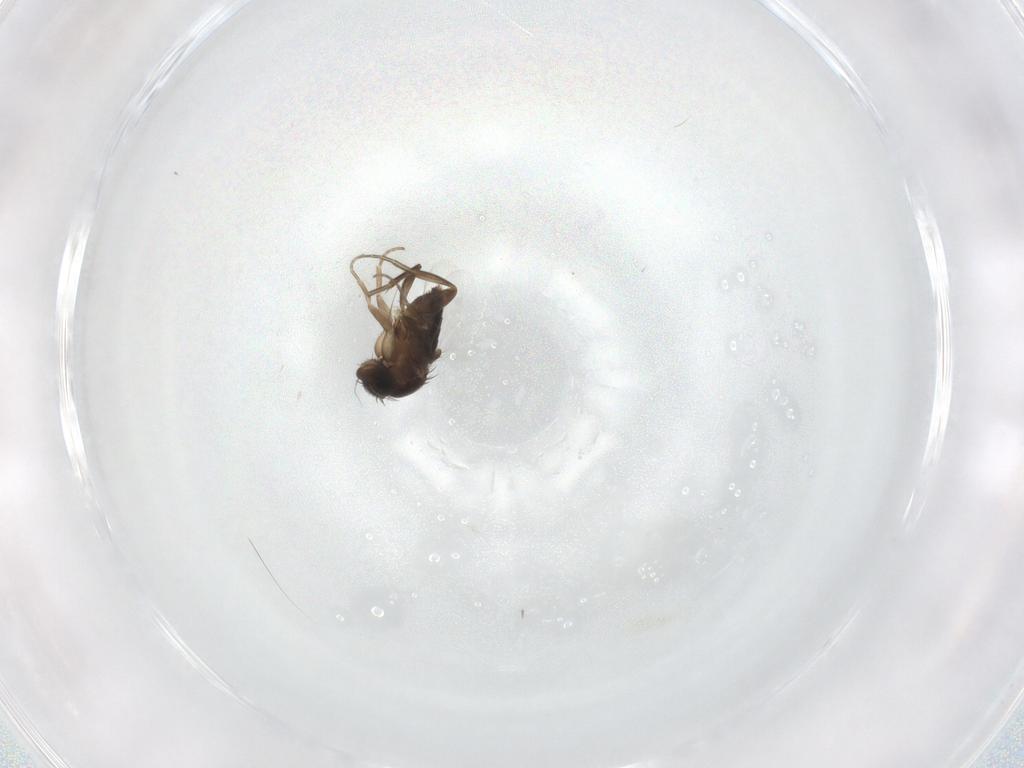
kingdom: Animalia
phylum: Arthropoda
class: Insecta
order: Diptera
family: Phoridae
